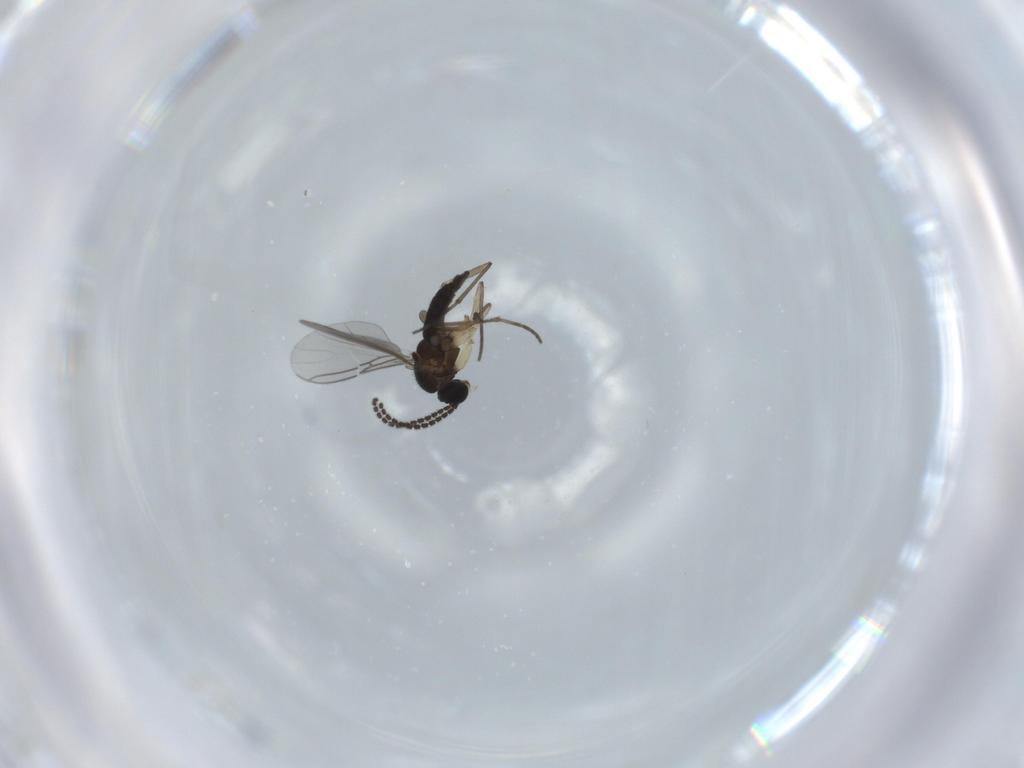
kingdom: Animalia
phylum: Arthropoda
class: Insecta
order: Diptera
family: Sciaridae
